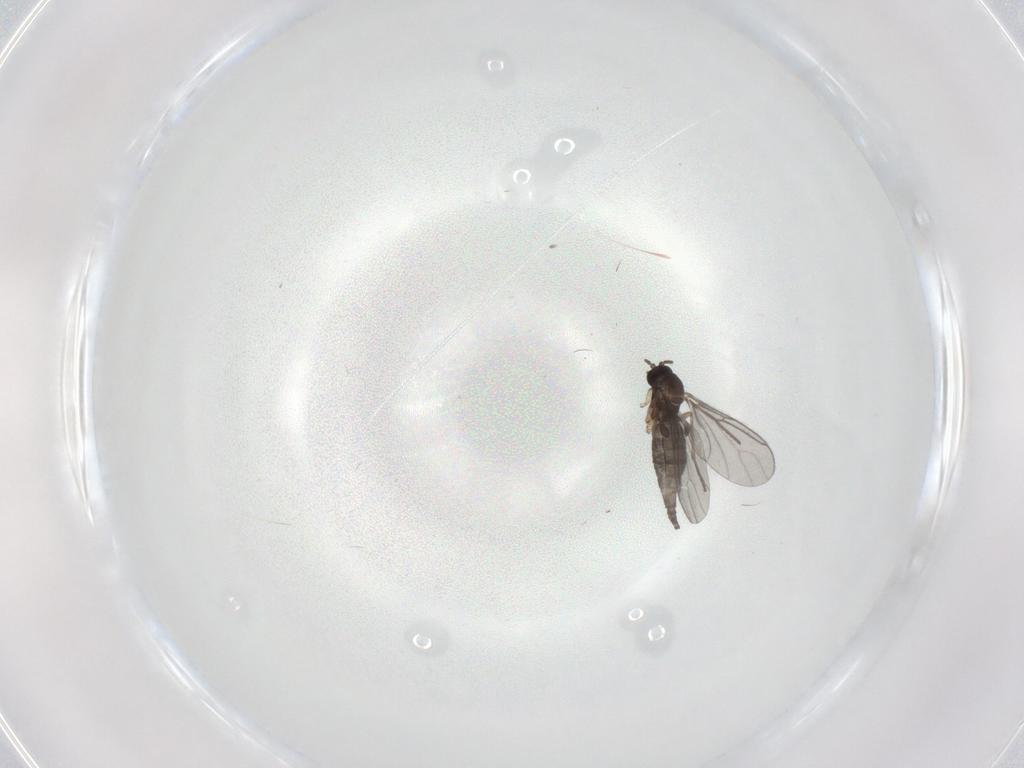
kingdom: Animalia
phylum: Arthropoda
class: Insecta
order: Diptera
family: Sciaridae
